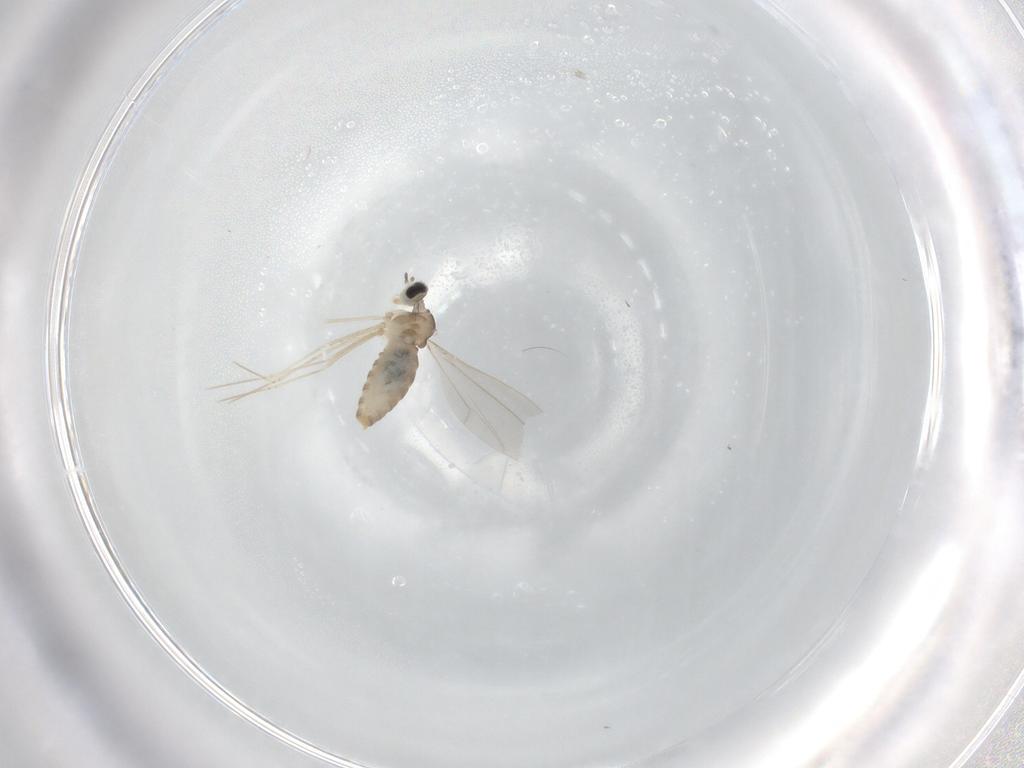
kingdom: Animalia
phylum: Arthropoda
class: Insecta
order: Diptera
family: Cecidomyiidae
